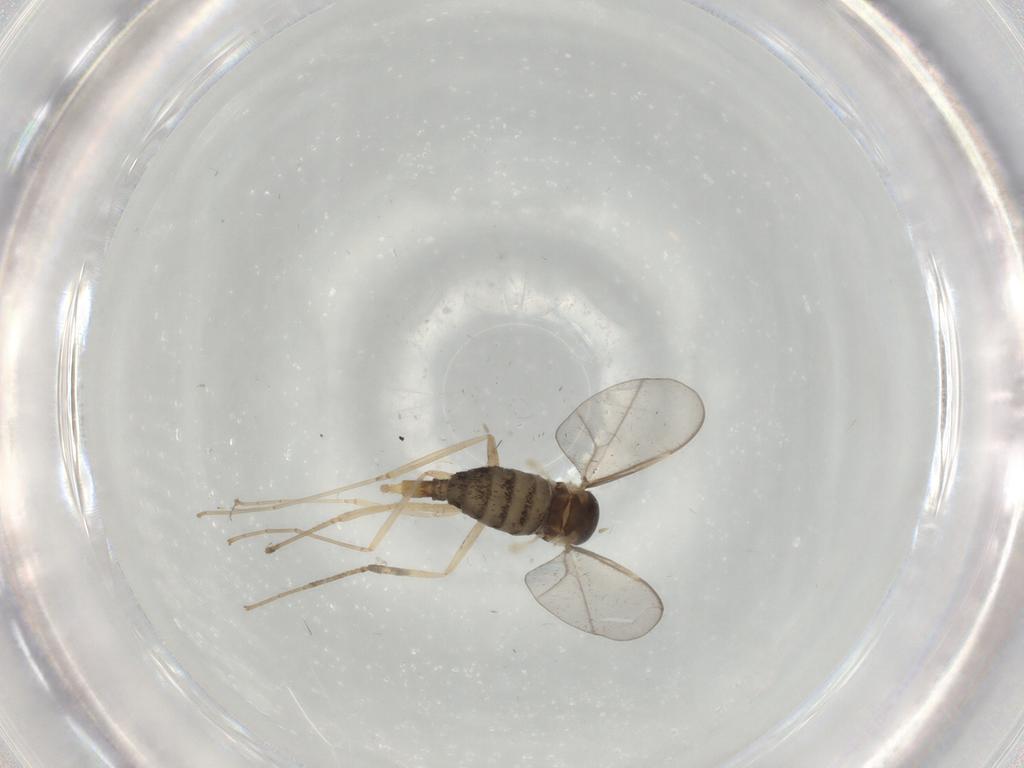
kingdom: Animalia
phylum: Arthropoda
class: Insecta
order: Diptera
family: Cecidomyiidae
